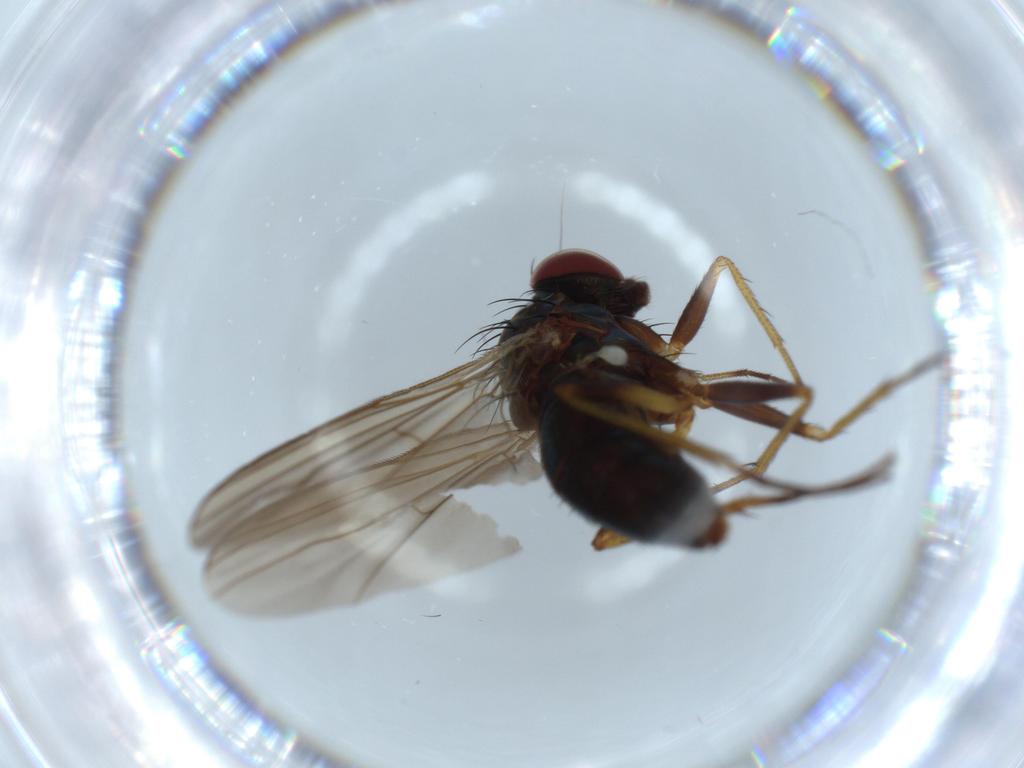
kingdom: Animalia
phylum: Arthropoda
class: Insecta
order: Diptera
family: Dolichopodidae
